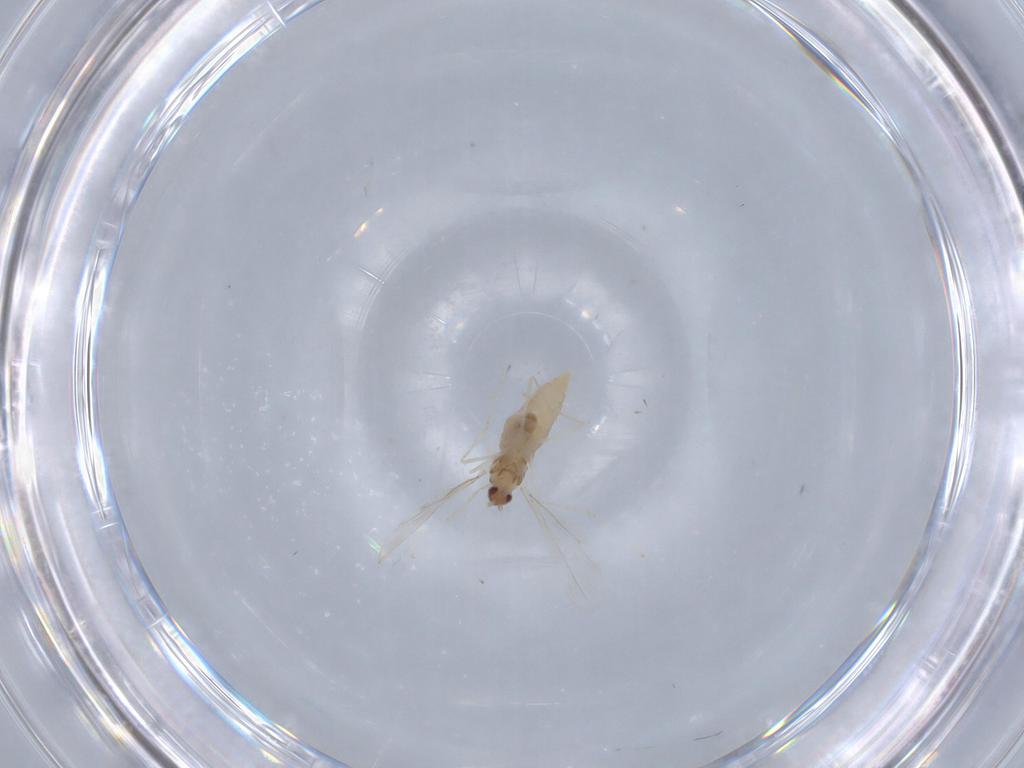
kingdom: Animalia
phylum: Arthropoda
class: Insecta
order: Diptera
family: Cecidomyiidae
